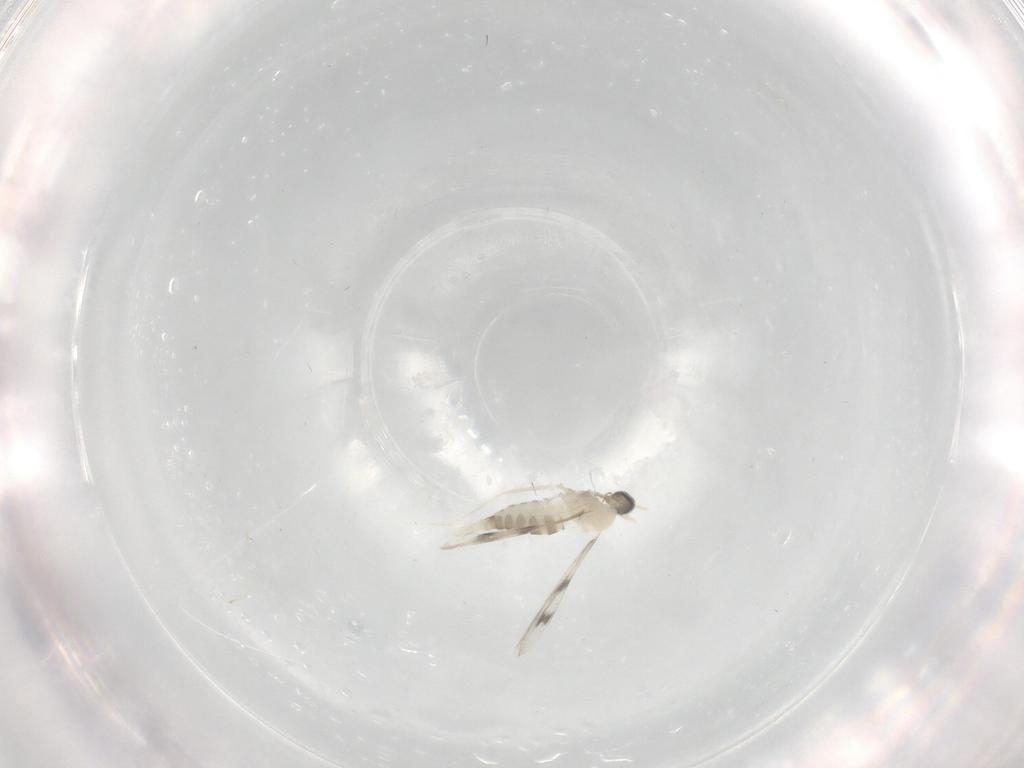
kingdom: Animalia
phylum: Arthropoda
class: Insecta
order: Diptera
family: Cecidomyiidae
